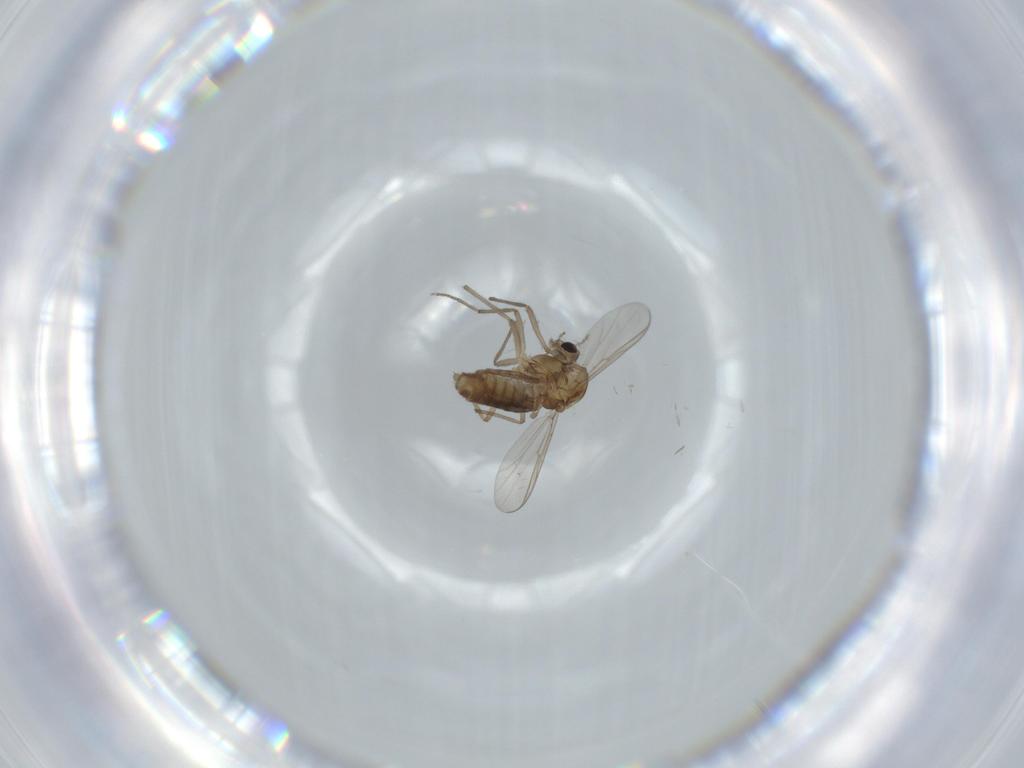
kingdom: Animalia
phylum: Arthropoda
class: Insecta
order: Diptera
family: Chironomidae
